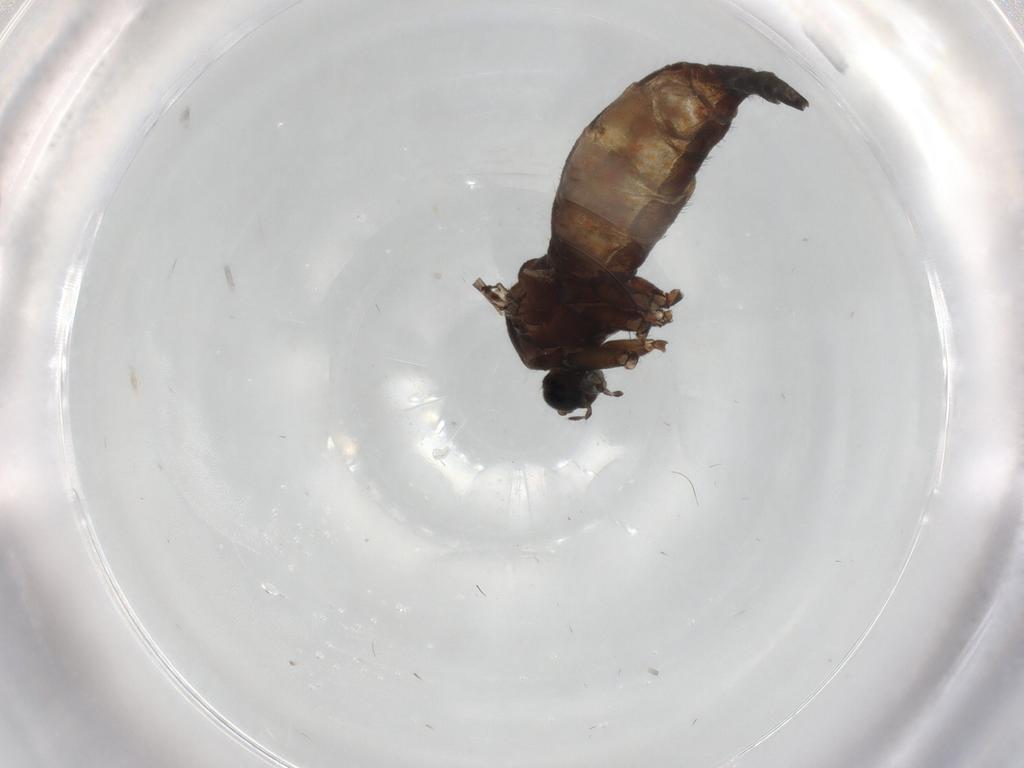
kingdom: Animalia
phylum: Arthropoda
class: Insecta
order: Diptera
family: Sciaridae
